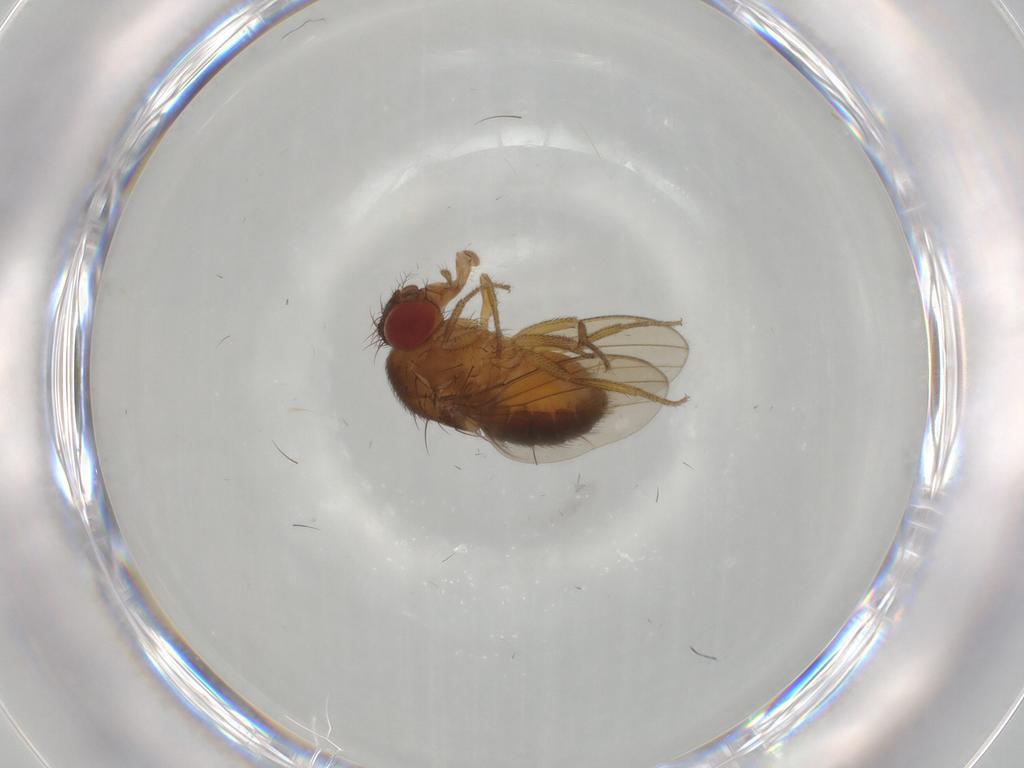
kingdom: Animalia
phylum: Arthropoda
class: Insecta
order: Diptera
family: Drosophilidae
